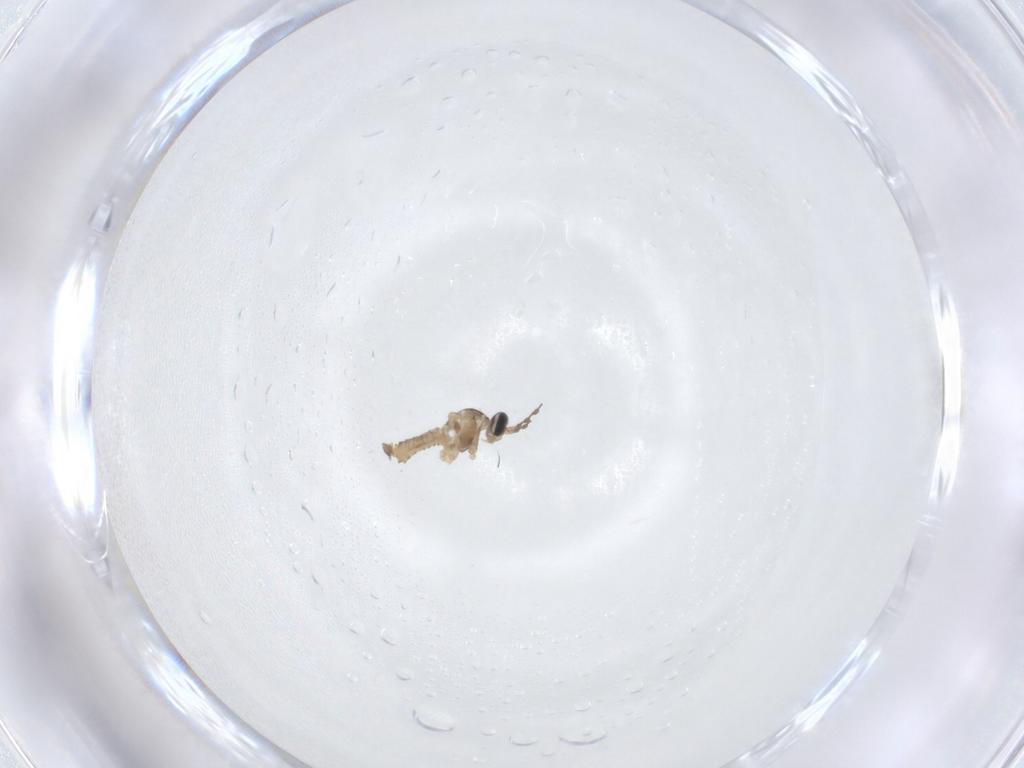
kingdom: Animalia
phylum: Arthropoda
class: Insecta
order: Diptera
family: Cecidomyiidae
